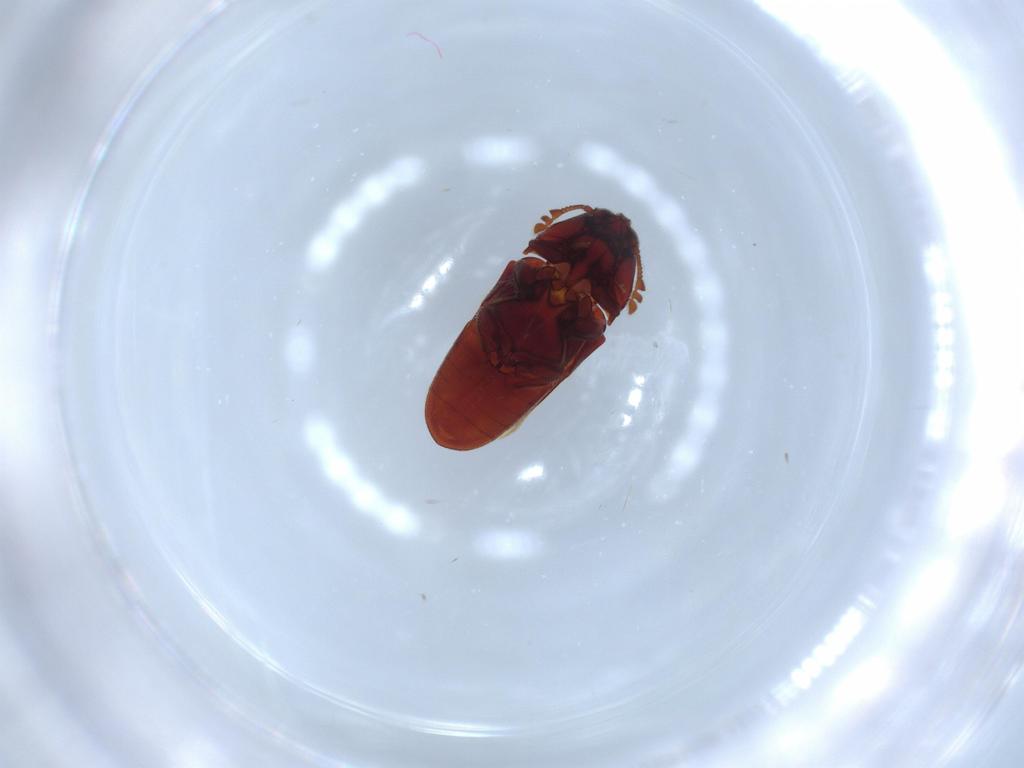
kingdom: Animalia
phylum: Arthropoda
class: Insecta
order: Coleoptera
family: Throscidae
